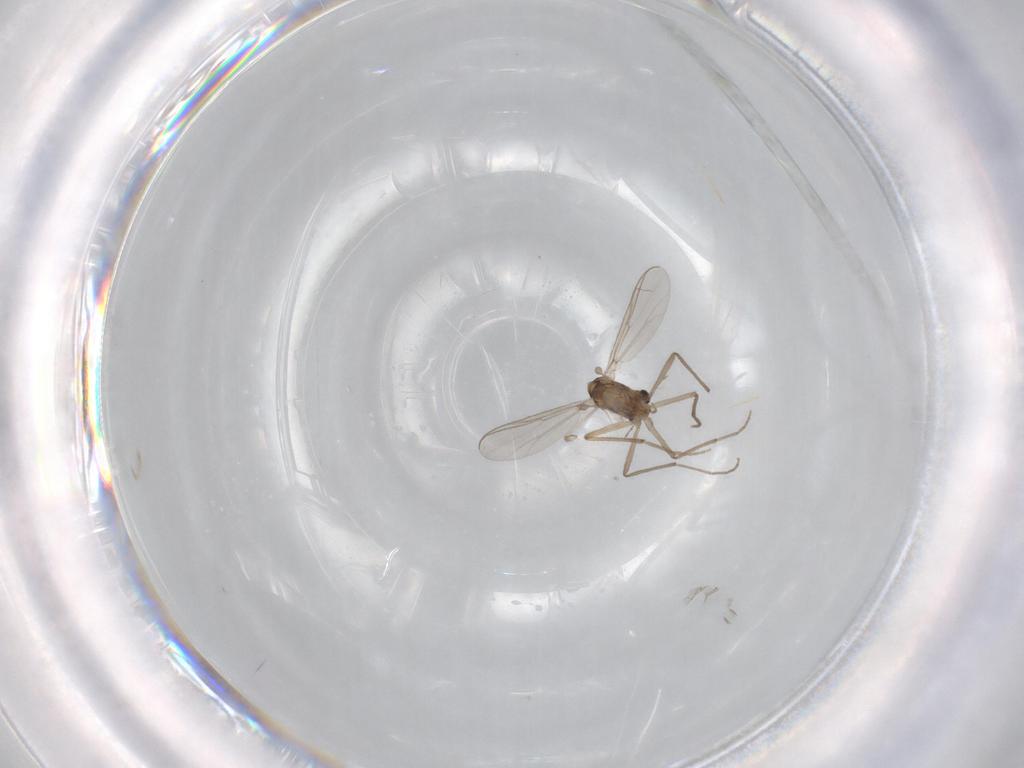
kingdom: Animalia
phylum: Arthropoda
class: Insecta
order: Diptera
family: Chironomidae
